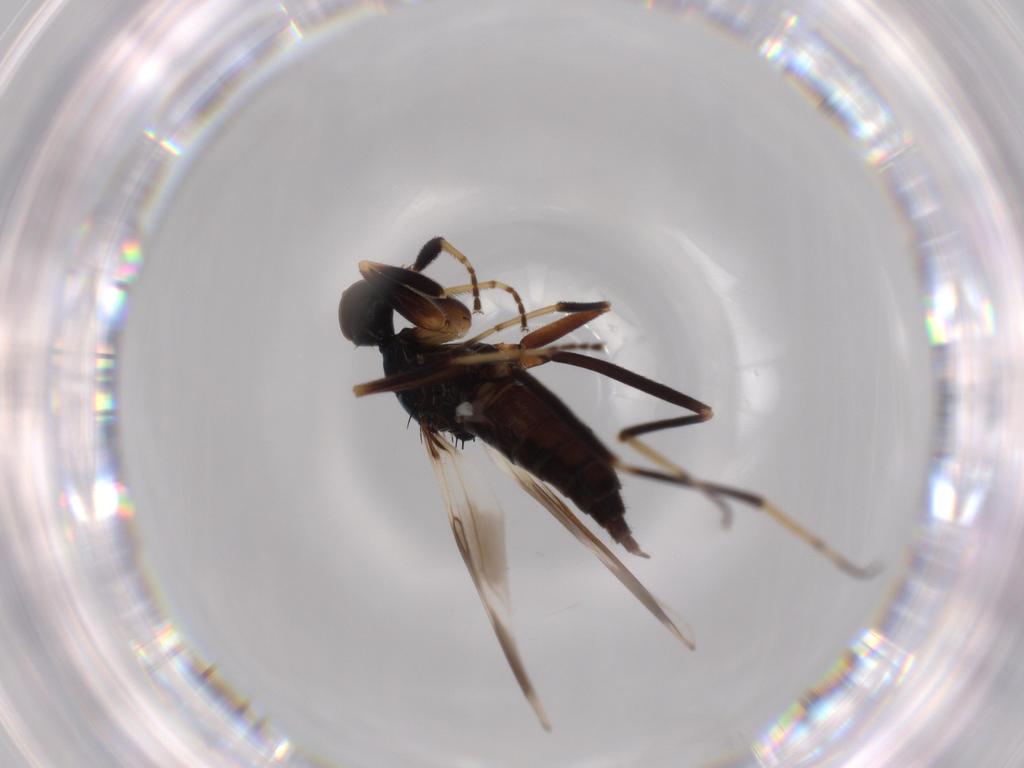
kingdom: Animalia
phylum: Arthropoda
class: Insecta
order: Diptera
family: Hybotidae
